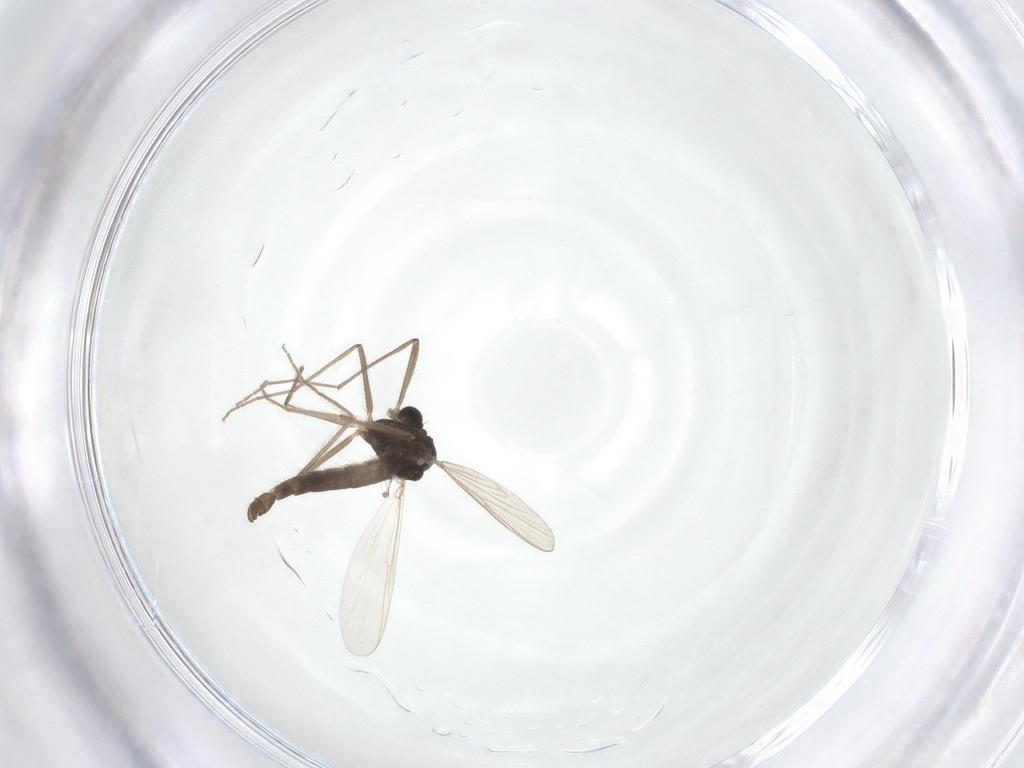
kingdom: Animalia
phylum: Arthropoda
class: Insecta
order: Diptera
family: Chironomidae
